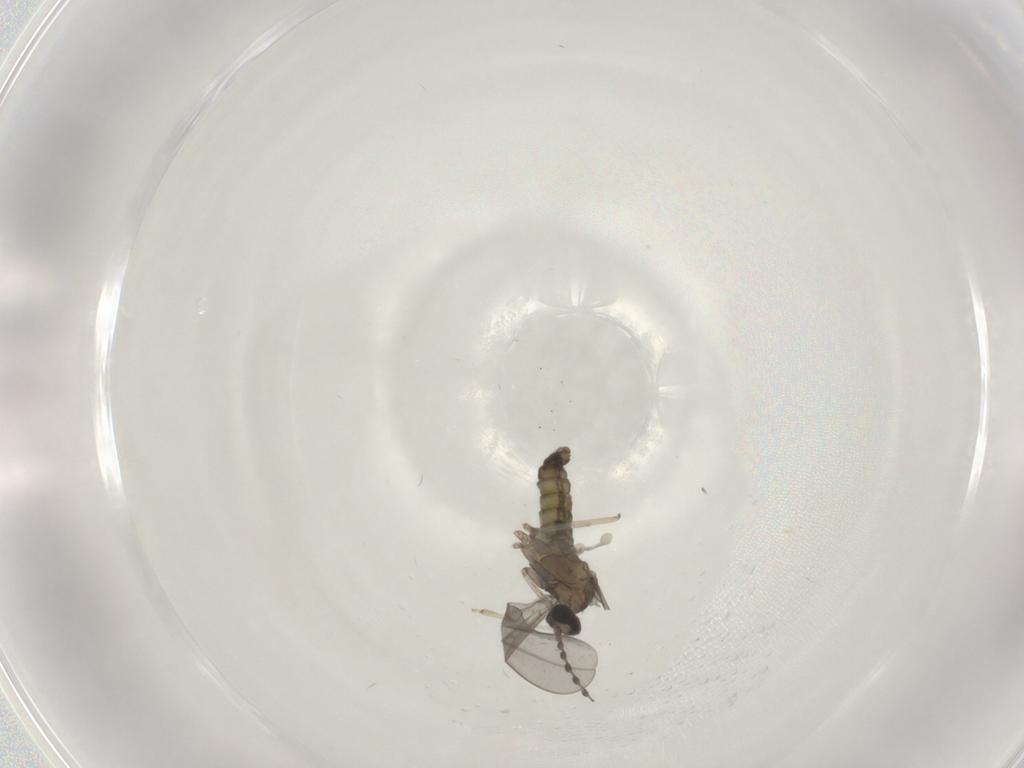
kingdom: Animalia
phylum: Arthropoda
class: Insecta
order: Diptera
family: Cecidomyiidae
